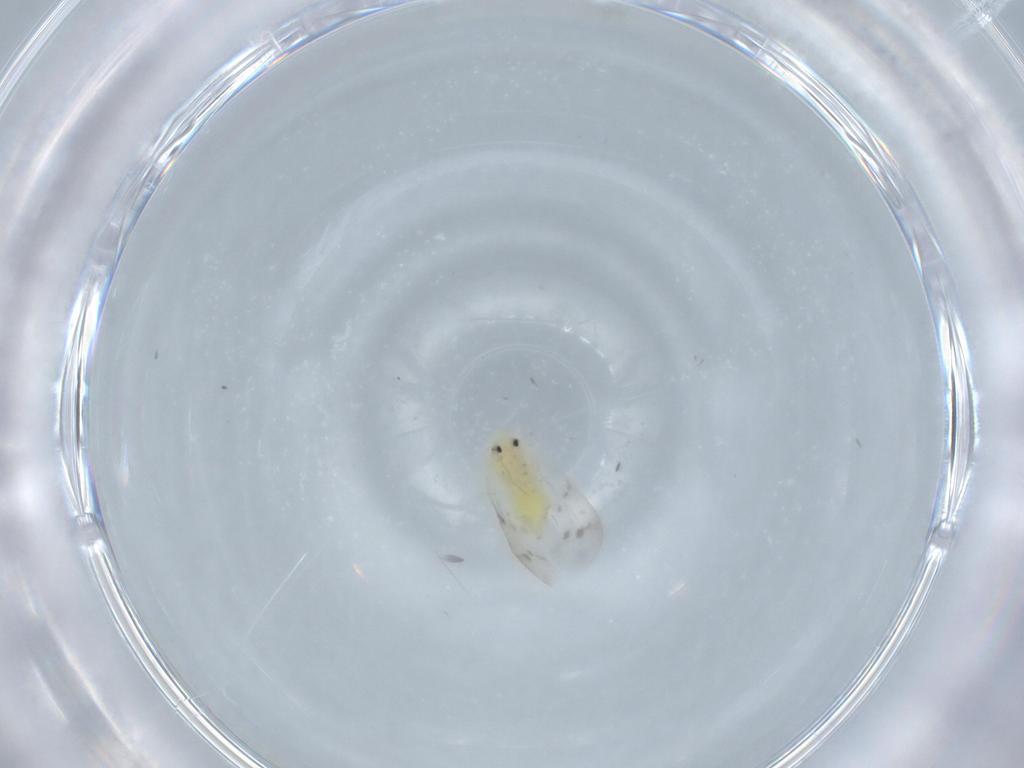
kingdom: Animalia
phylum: Arthropoda
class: Insecta
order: Hemiptera
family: Aleyrodidae
